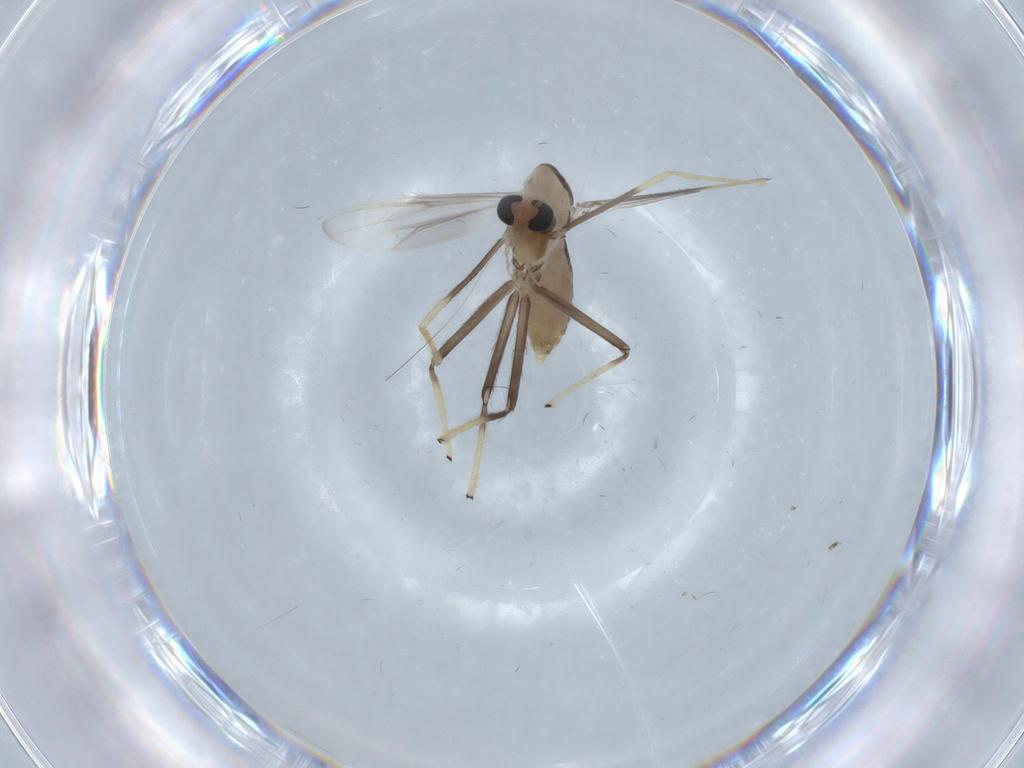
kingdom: Animalia
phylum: Arthropoda
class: Insecta
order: Diptera
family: Chironomidae
